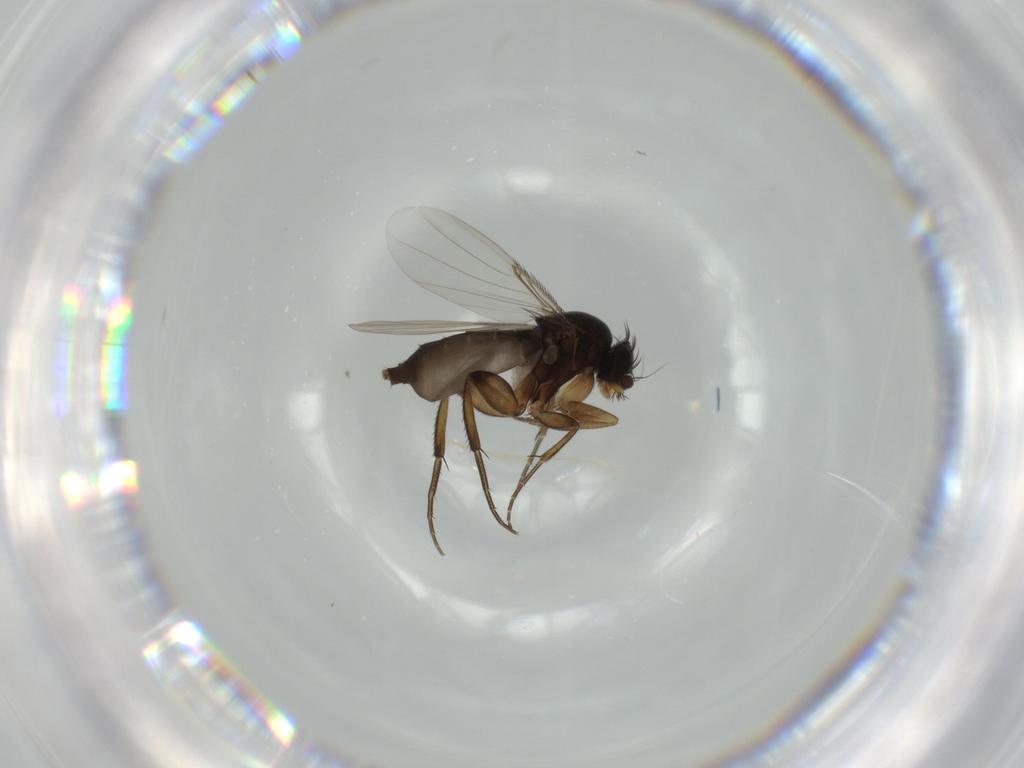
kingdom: Animalia
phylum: Arthropoda
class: Insecta
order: Diptera
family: Phoridae
